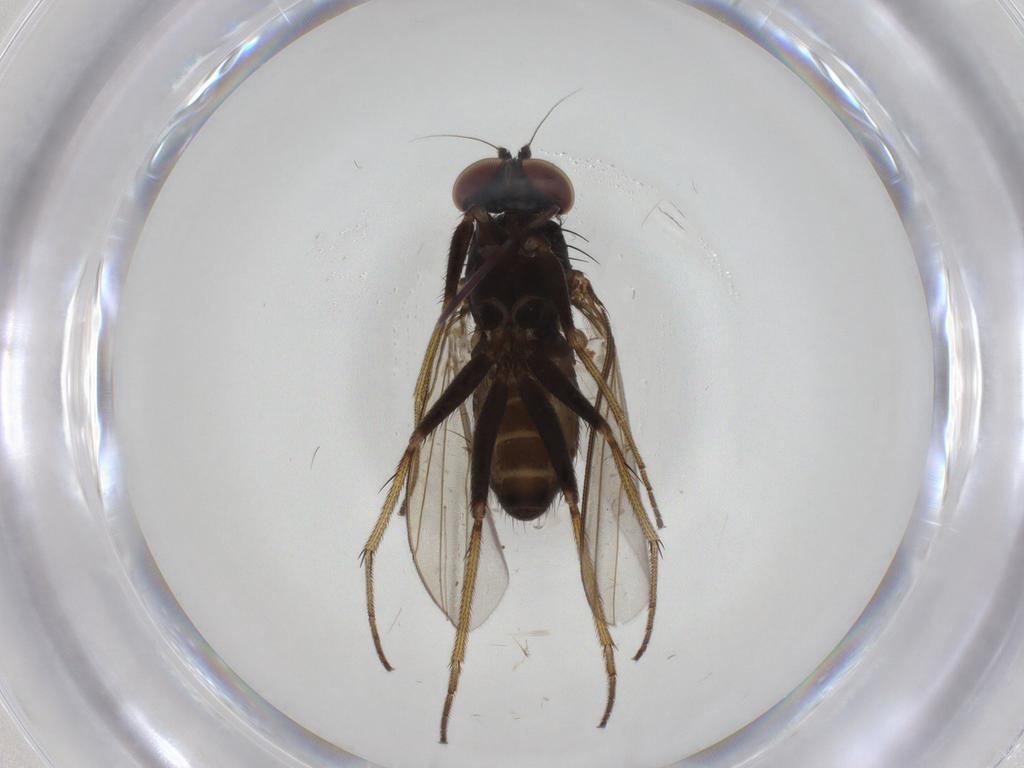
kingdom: Animalia
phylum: Arthropoda
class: Insecta
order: Diptera
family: Dolichopodidae
